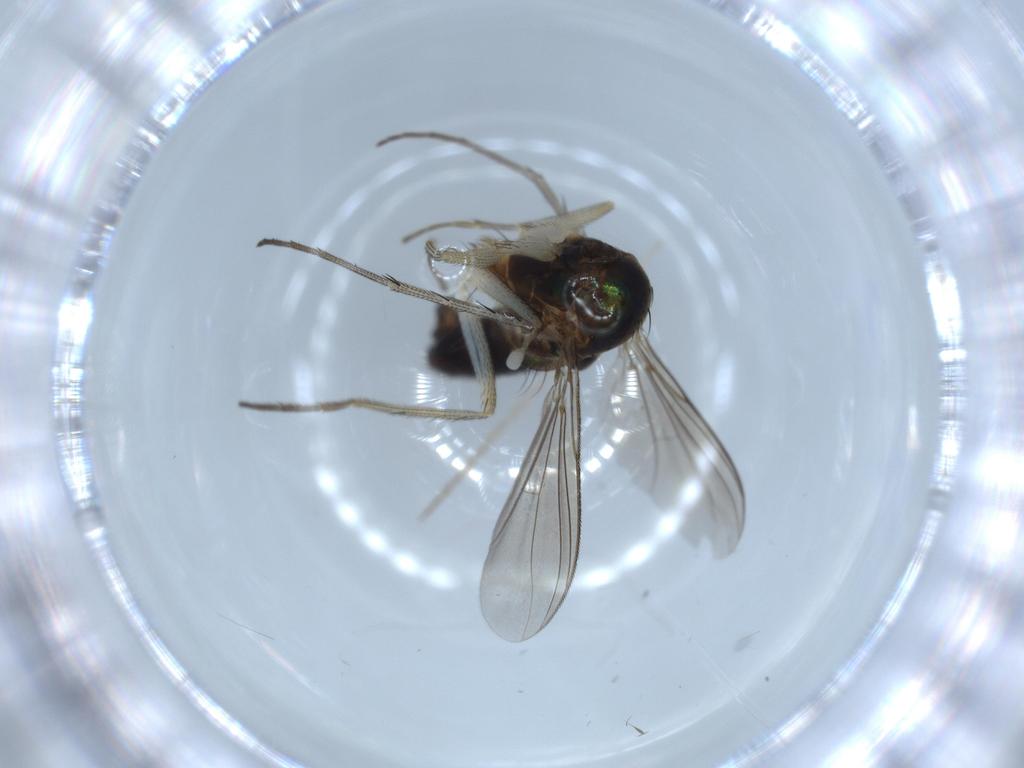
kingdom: Animalia
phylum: Arthropoda
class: Insecta
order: Diptera
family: Dolichopodidae
